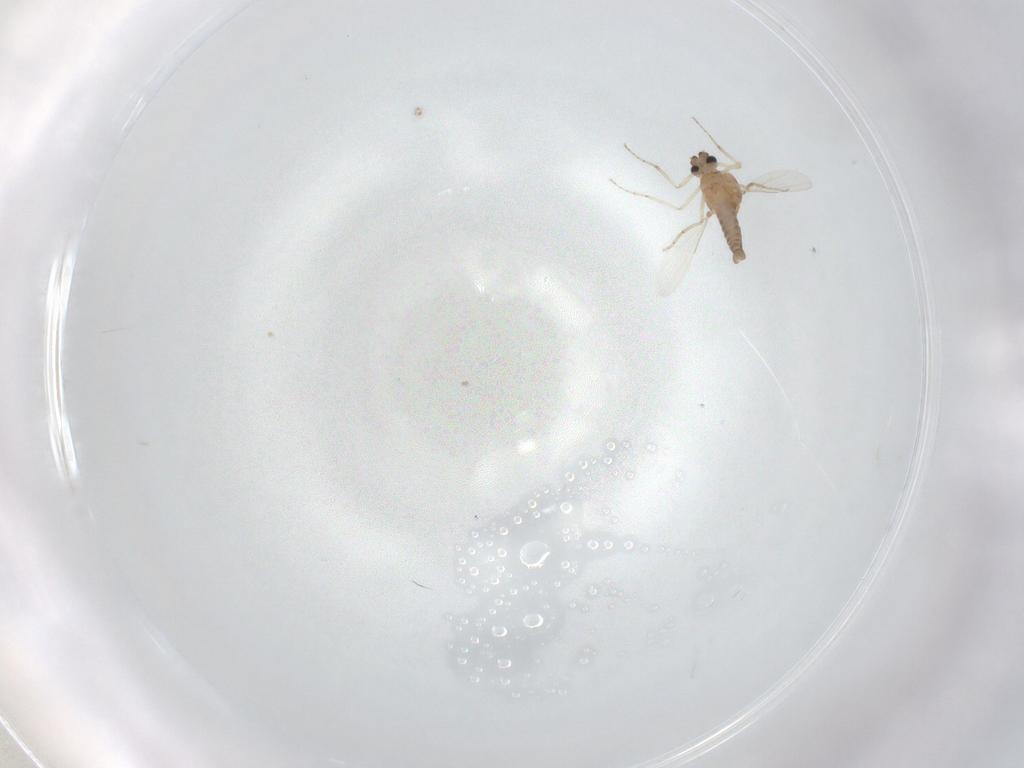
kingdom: Animalia
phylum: Arthropoda
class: Insecta
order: Diptera
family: Ceratopogonidae
